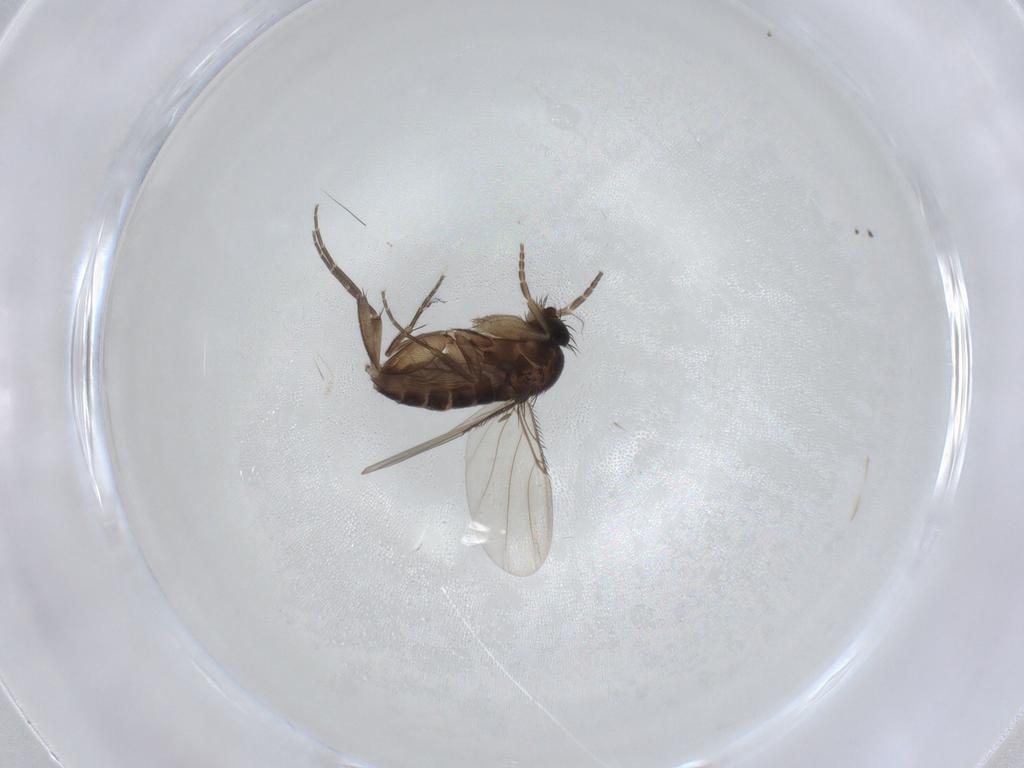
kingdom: Animalia
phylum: Arthropoda
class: Insecta
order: Diptera
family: Phoridae
